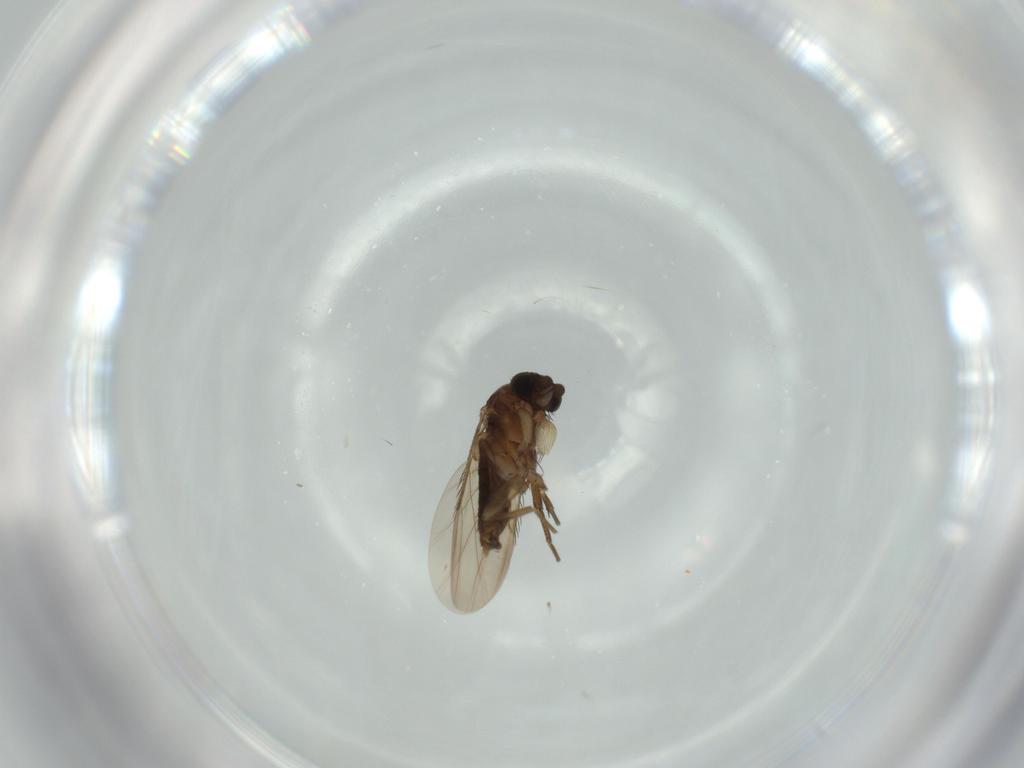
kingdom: Animalia
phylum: Arthropoda
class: Insecta
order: Diptera
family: Phoridae
